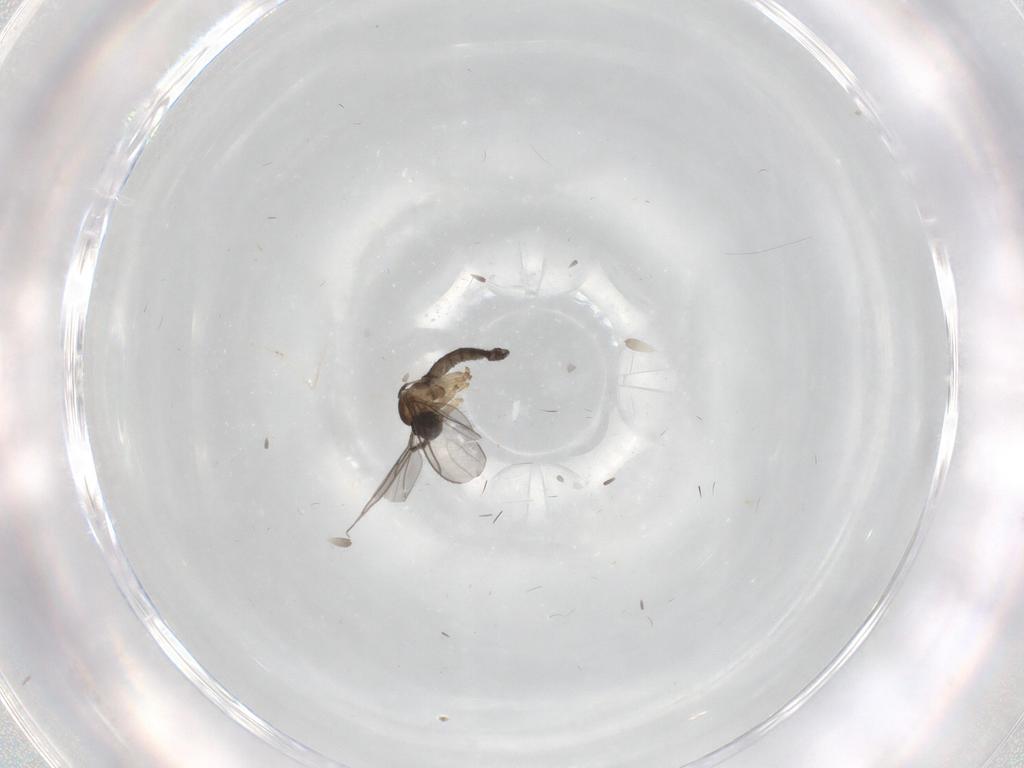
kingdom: Animalia
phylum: Arthropoda
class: Insecta
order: Diptera
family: Sciaridae
